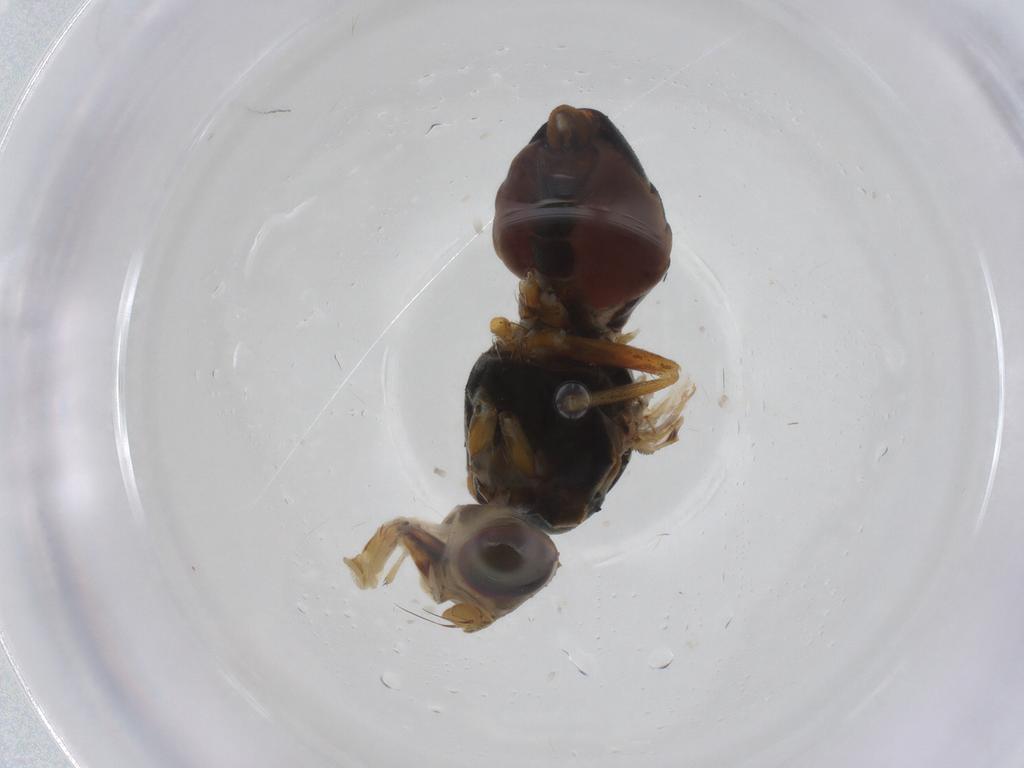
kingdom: Animalia
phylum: Arthropoda
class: Insecta
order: Diptera
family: Tephritidae
